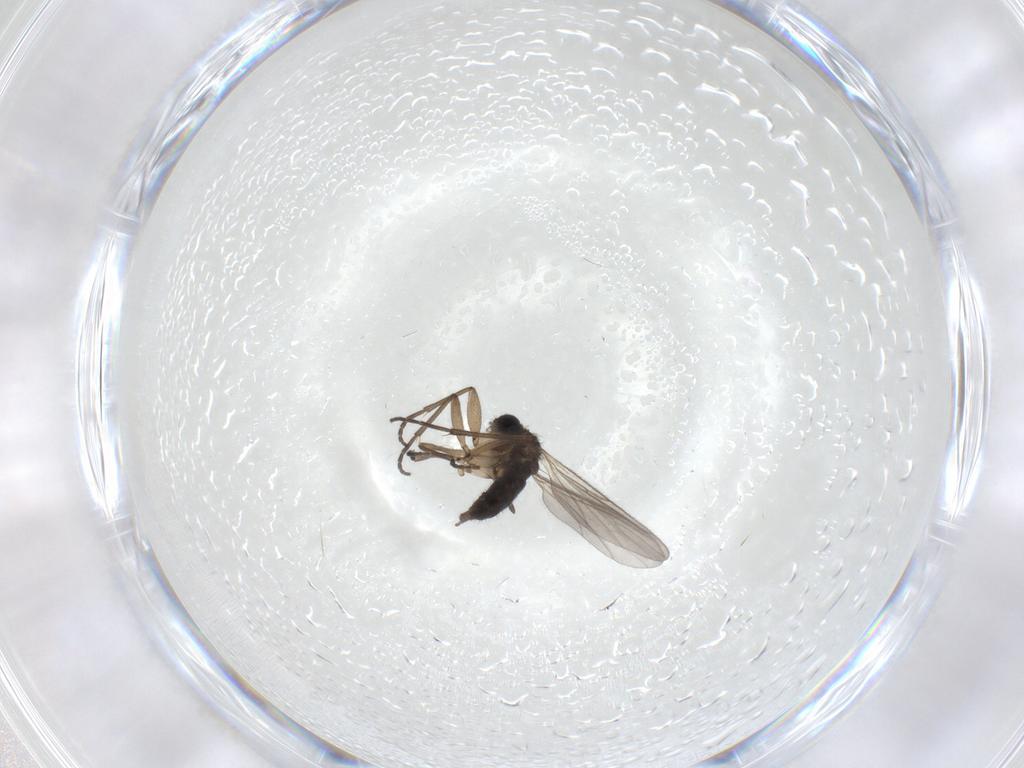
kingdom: Animalia
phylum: Arthropoda
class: Insecta
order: Diptera
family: Sciaridae
